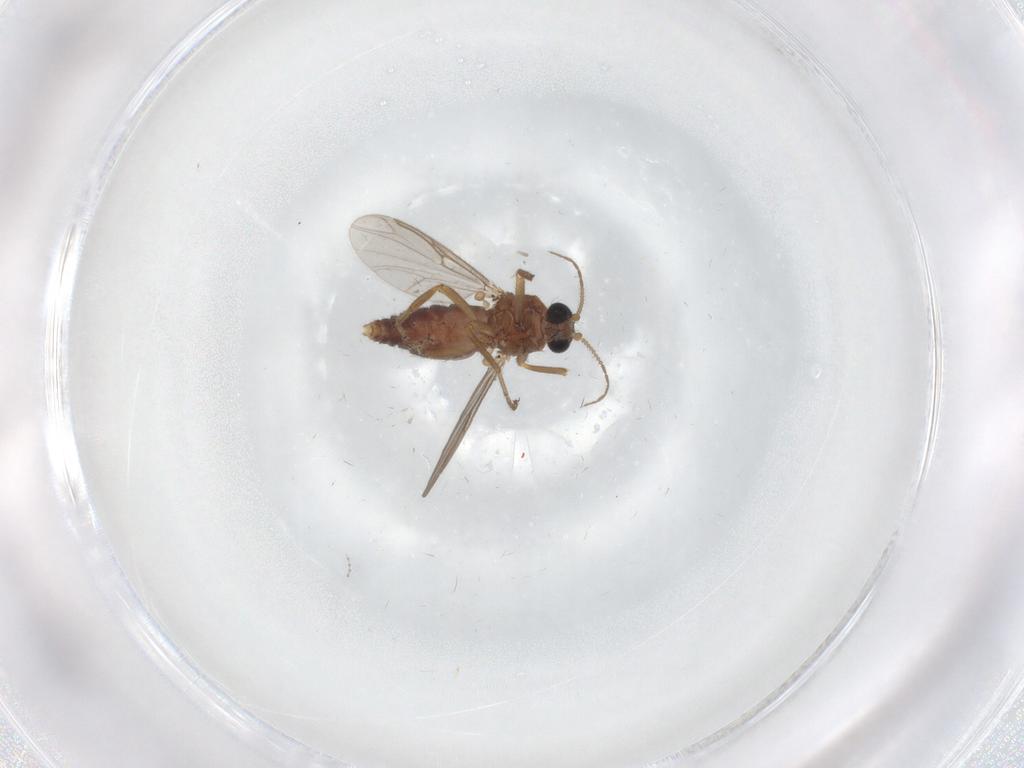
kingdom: Animalia
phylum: Arthropoda
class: Insecta
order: Diptera
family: Ceratopogonidae
